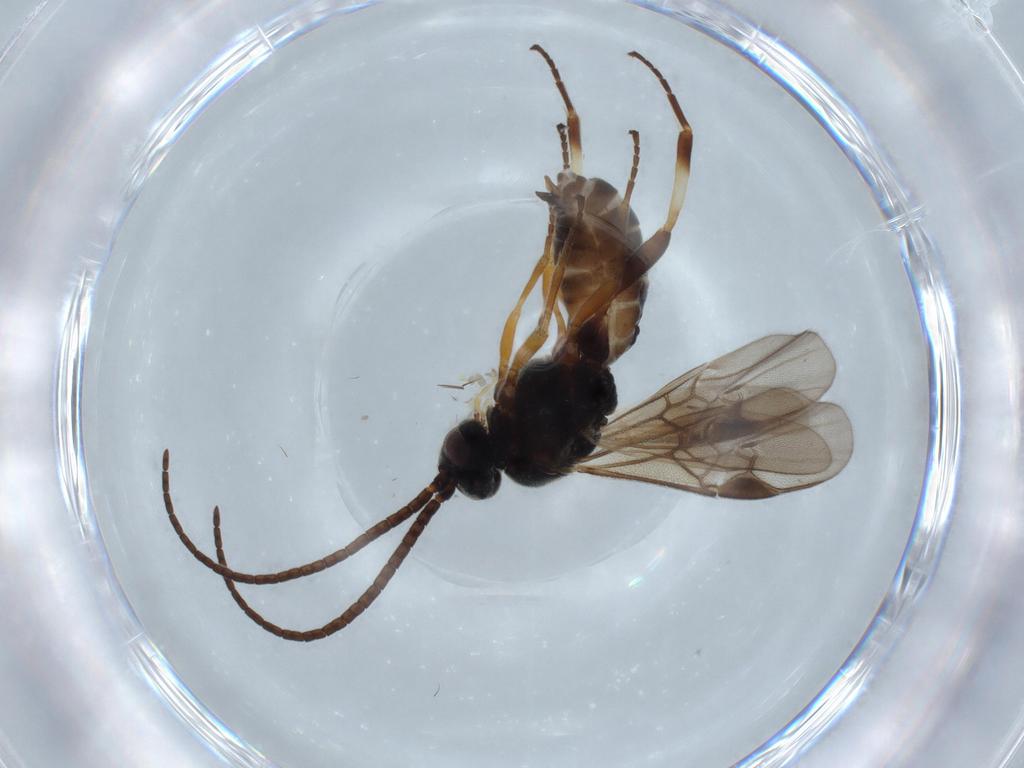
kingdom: Animalia
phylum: Arthropoda
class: Insecta
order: Hymenoptera
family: Braconidae
